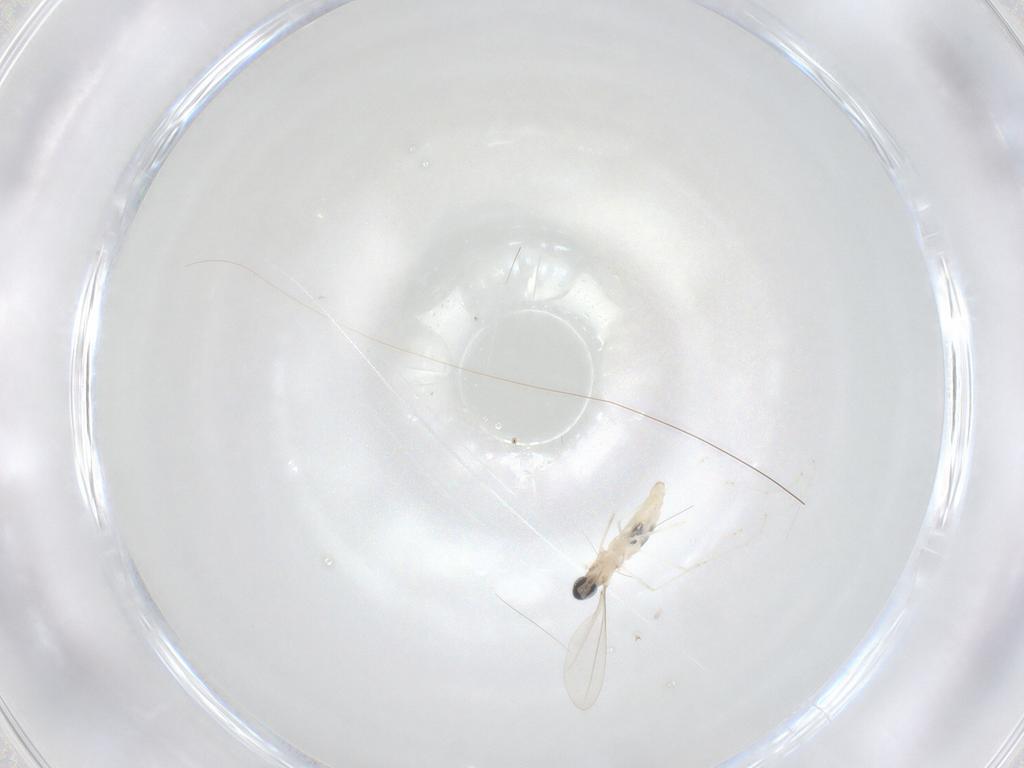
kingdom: Animalia
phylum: Arthropoda
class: Insecta
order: Diptera
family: Cecidomyiidae
